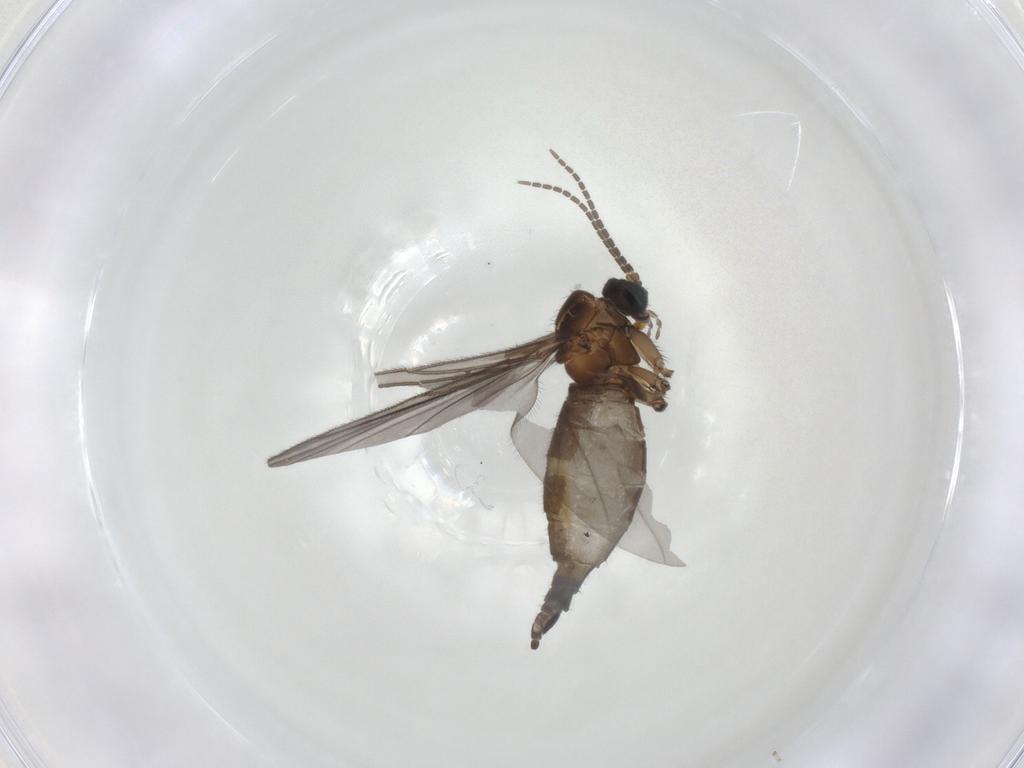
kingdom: Animalia
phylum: Arthropoda
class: Insecta
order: Diptera
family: Sciaridae
